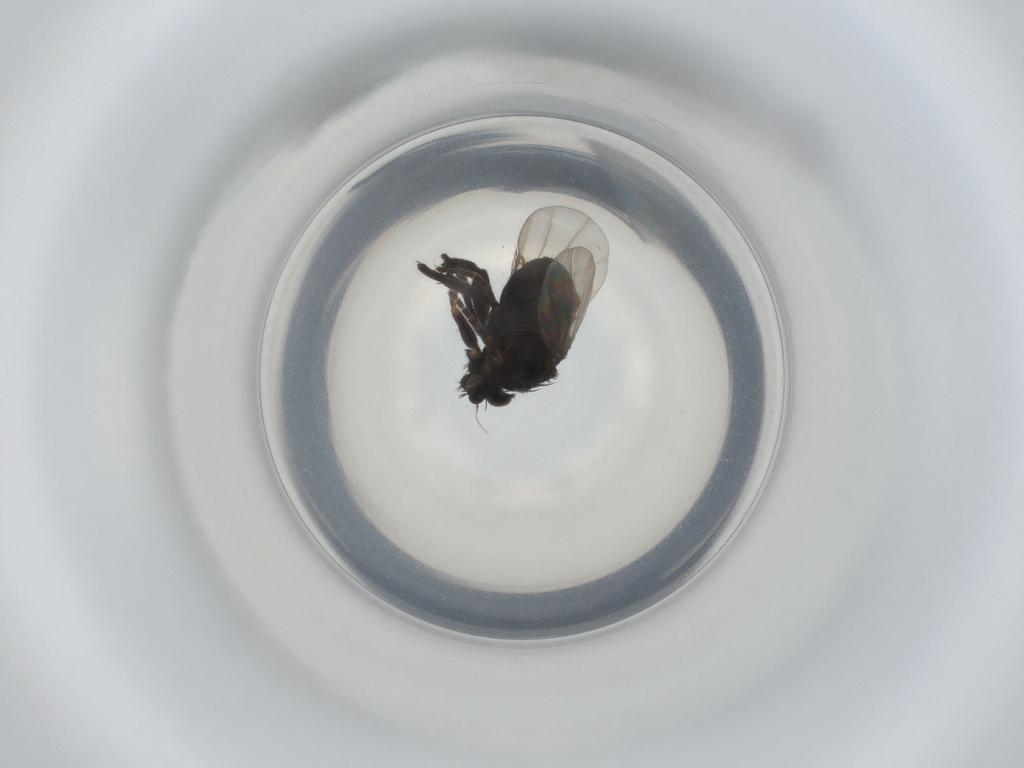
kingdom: Animalia
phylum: Arthropoda
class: Insecta
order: Diptera
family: Phoridae
